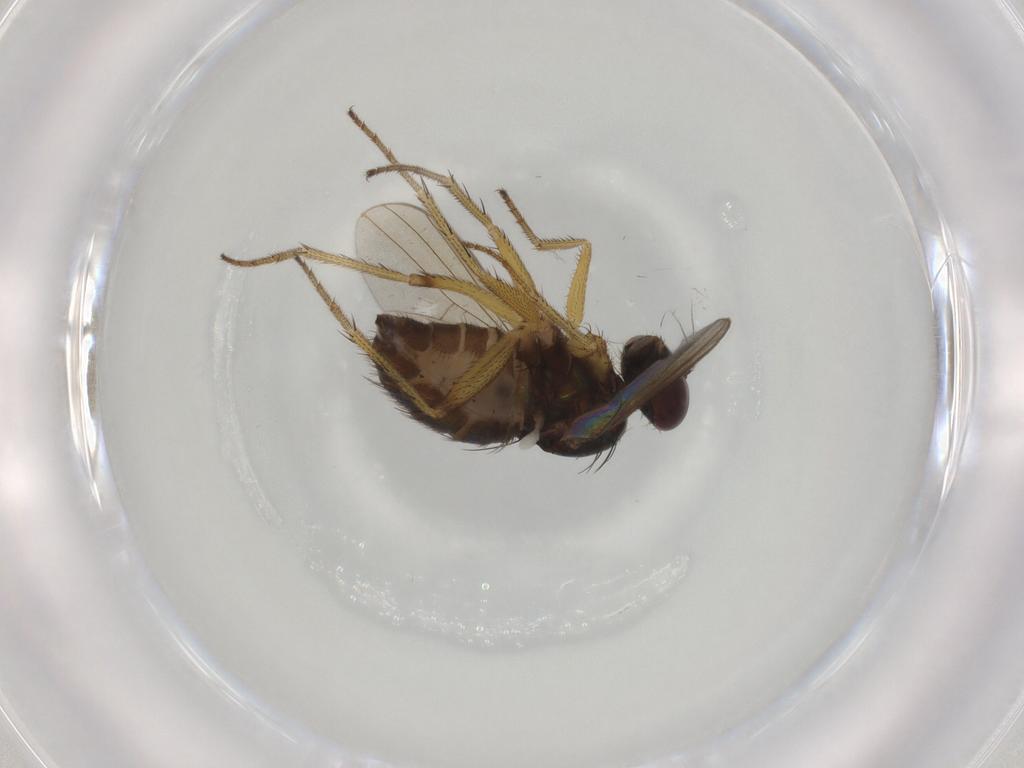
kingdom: Animalia
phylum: Arthropoda
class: Insecta
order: Diptera
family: Dolichopodidae
